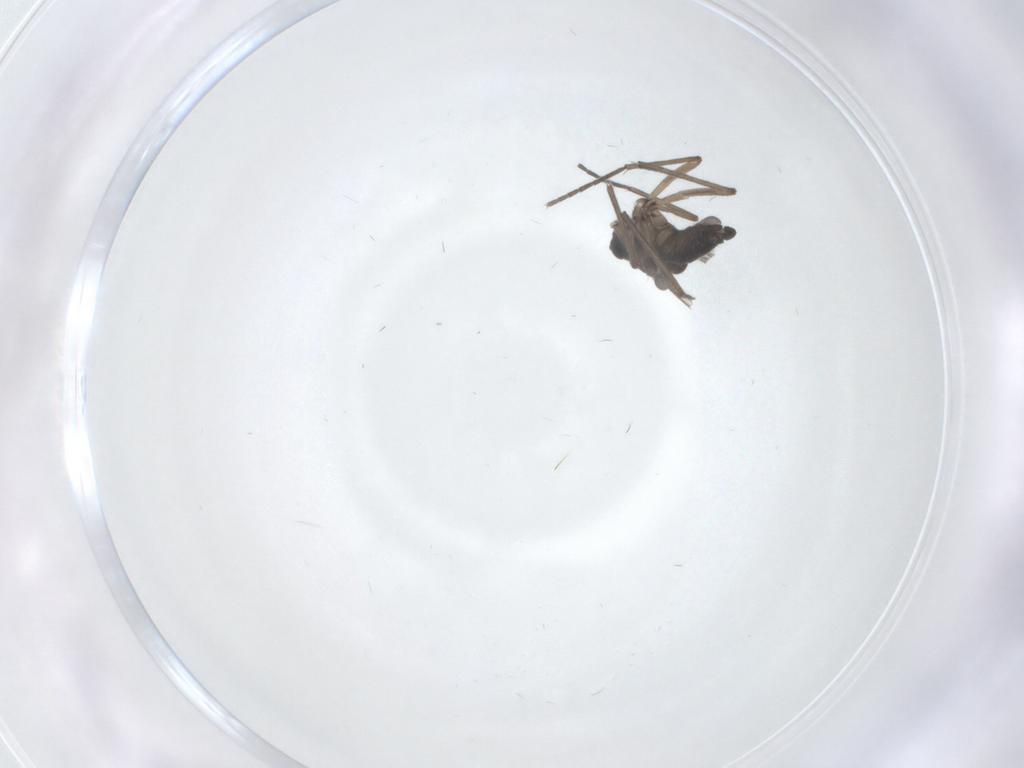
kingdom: Animalia
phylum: Arthropoda
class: Insecta
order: Diptera
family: Sciaridae
